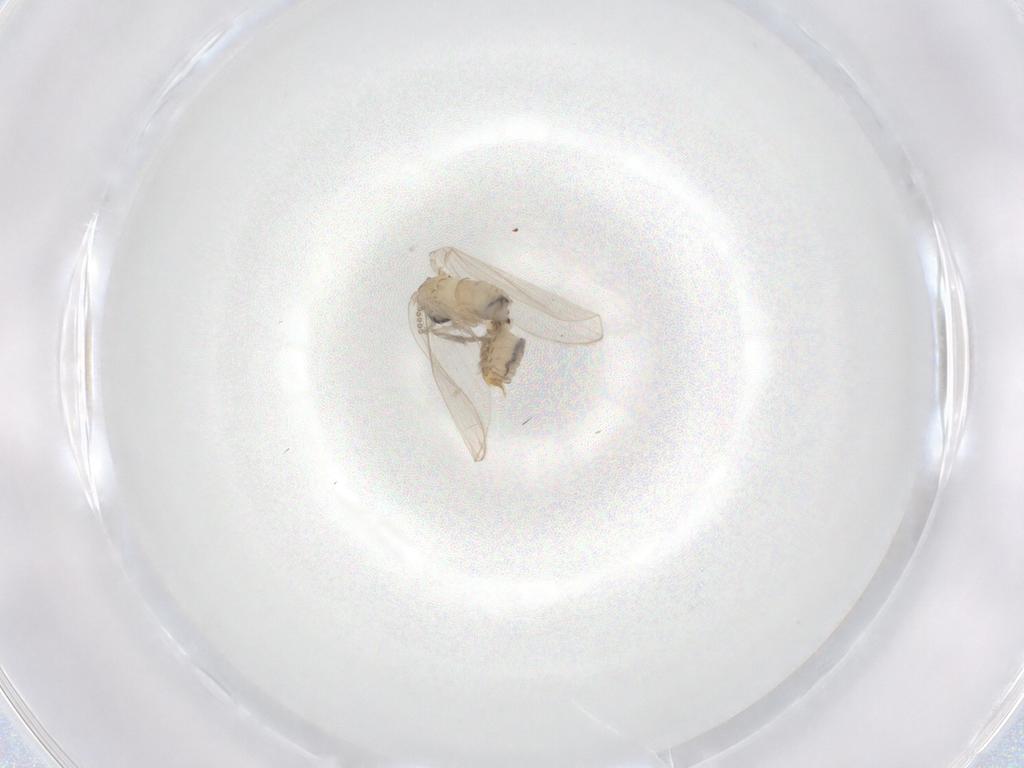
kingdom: Animalia
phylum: Arthropoda
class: Insecta
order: Diptera
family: Psychodidae
